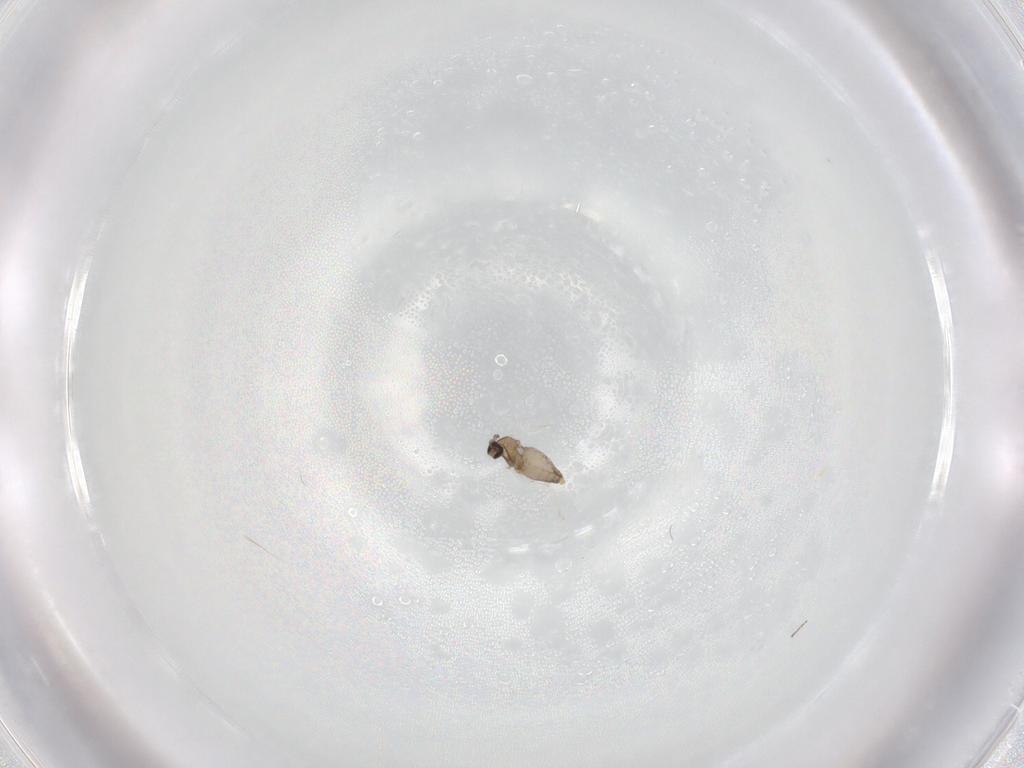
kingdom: Animalia
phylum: Arthropoda
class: Insecta
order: Diptera
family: Cecidomyiidae
